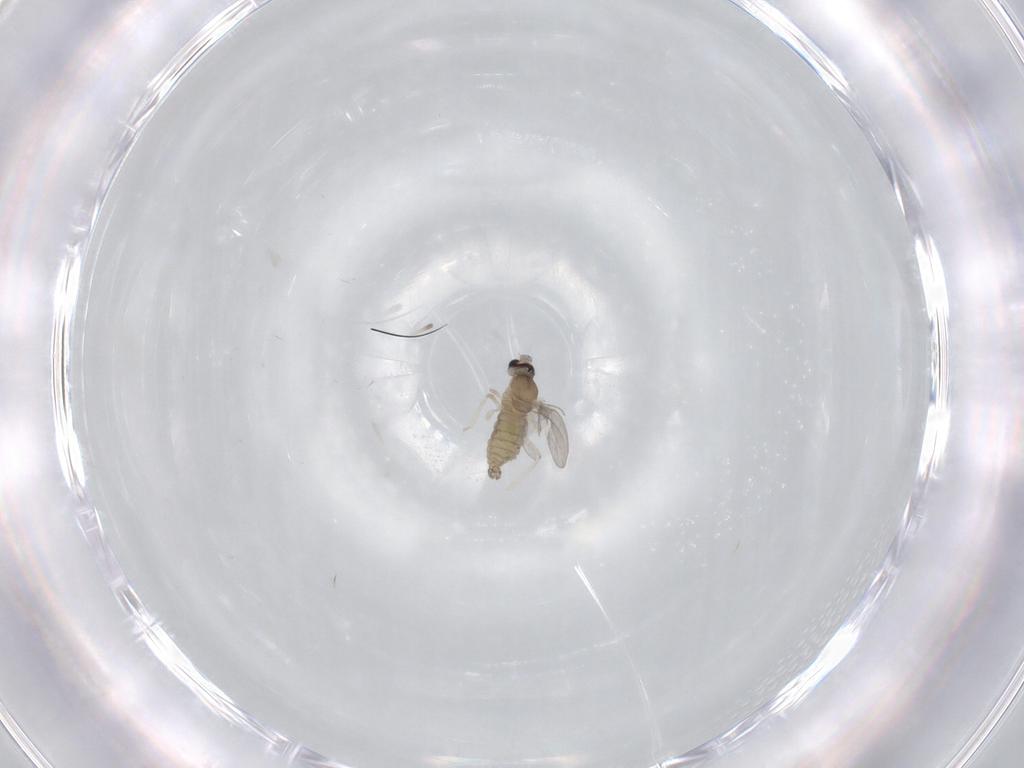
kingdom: Animalia
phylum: Arthropoda
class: Insecta
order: Diptera
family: Cecidomyiidae
